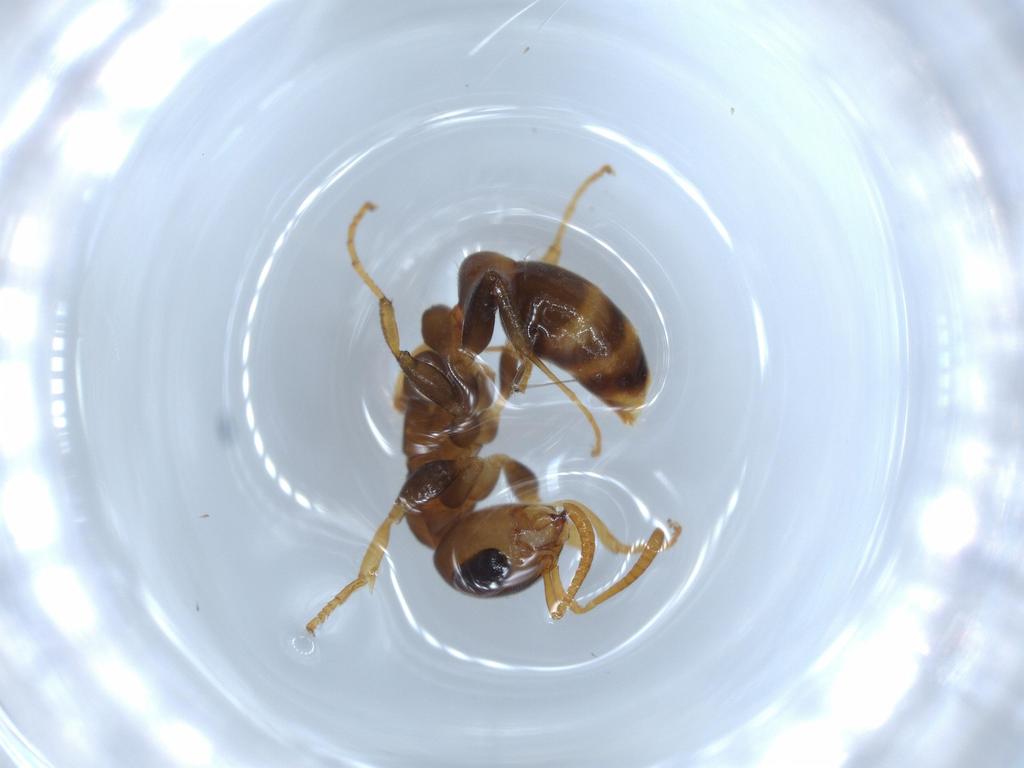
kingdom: Animalia
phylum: Arthropoda
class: Insecta
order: Hymenoptera
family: Formicidae
